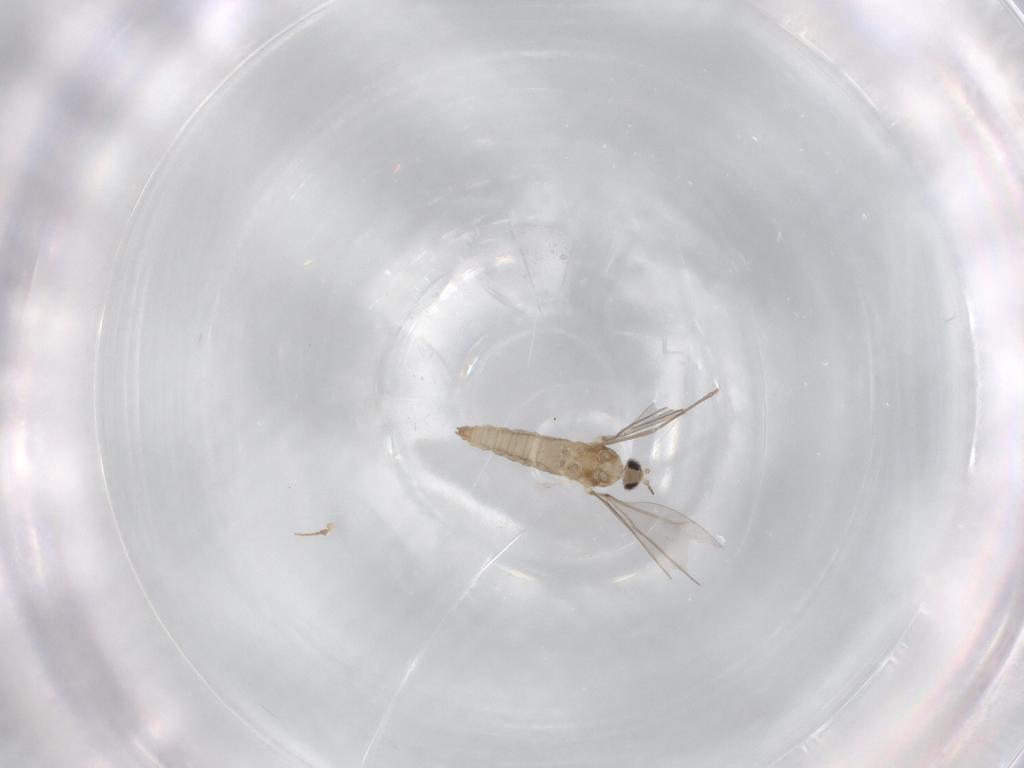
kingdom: Animalia
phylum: Arthropoda
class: Insecta
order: Diptera
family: Cecidomyiidae
